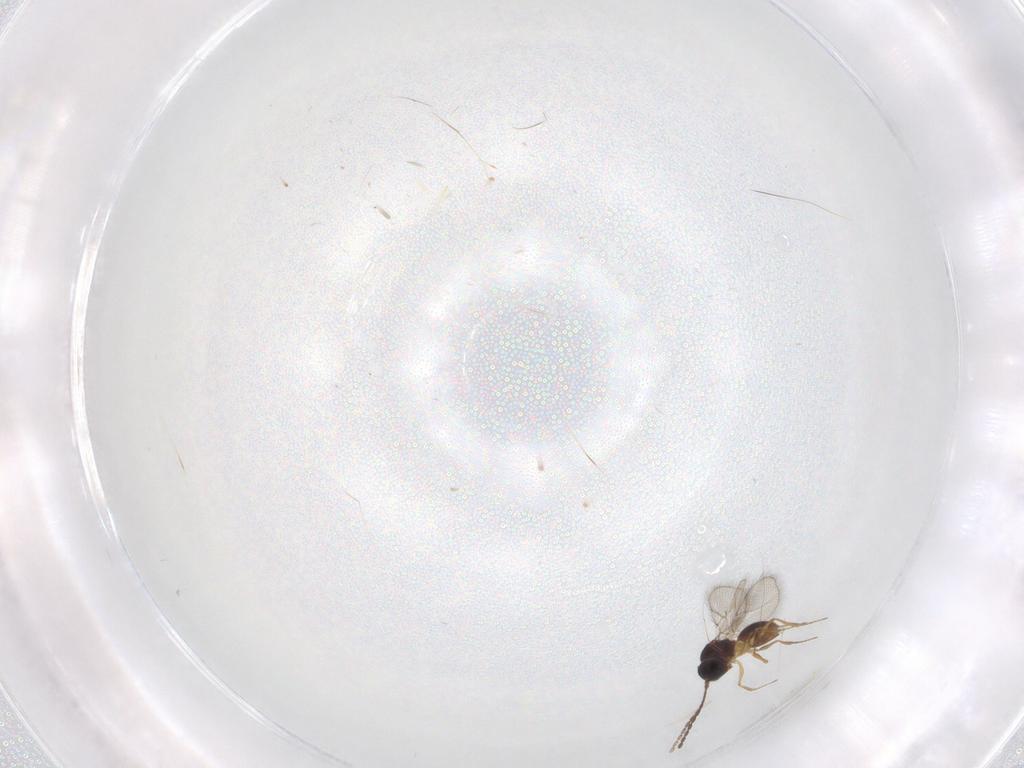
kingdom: Animalia
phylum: Arthropoda
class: Insecta
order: Hymenoptera
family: Figitidae
